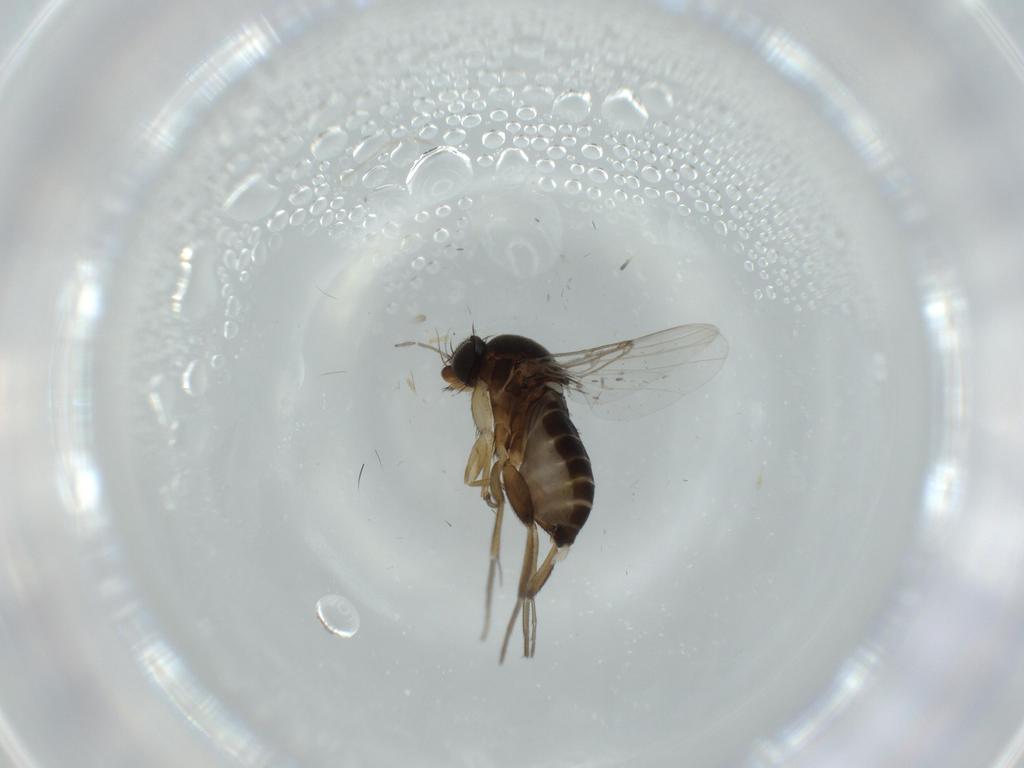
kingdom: Animalia
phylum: Arthropoda
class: Insecta
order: Diptera
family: Phoridae
